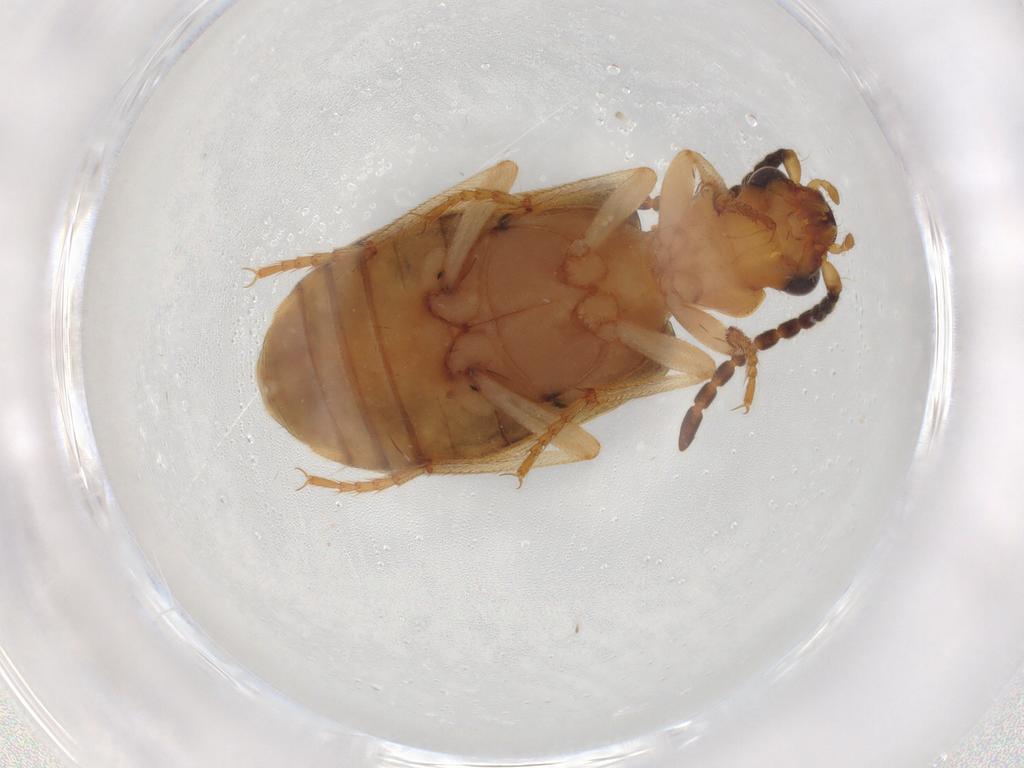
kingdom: Animalia
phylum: Arthropoda
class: Insecta
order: Coleoptera
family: Carabidae
